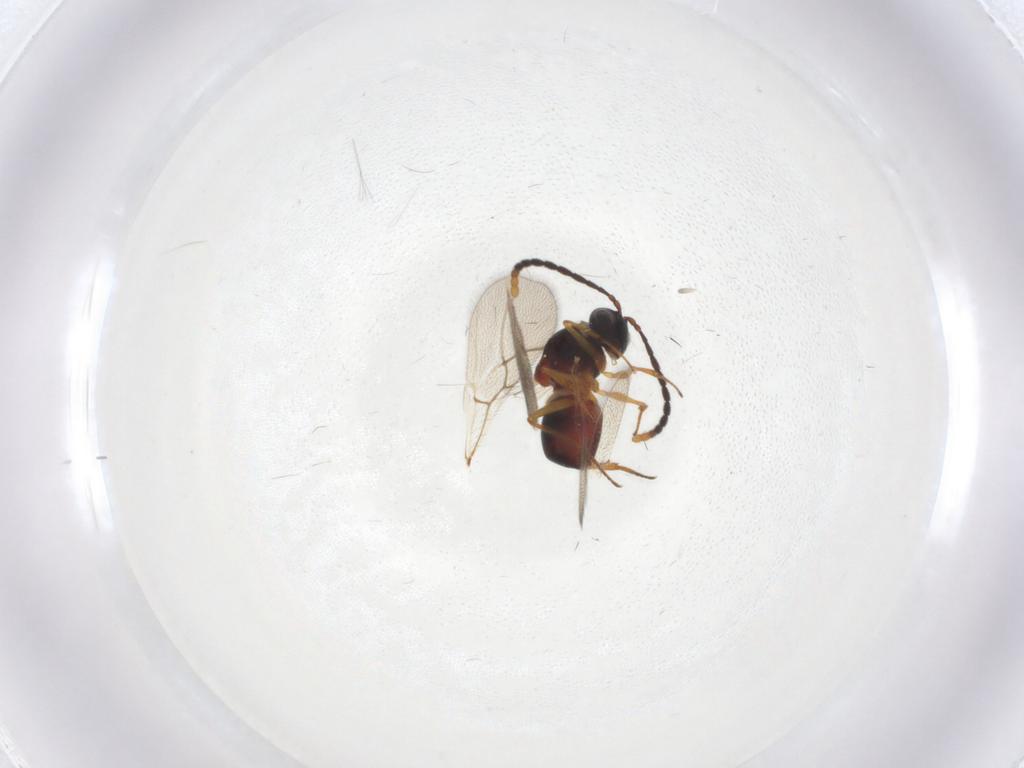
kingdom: Animalia
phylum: Arthropoda
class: Insecta
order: Hymenoptera
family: Figitidae
